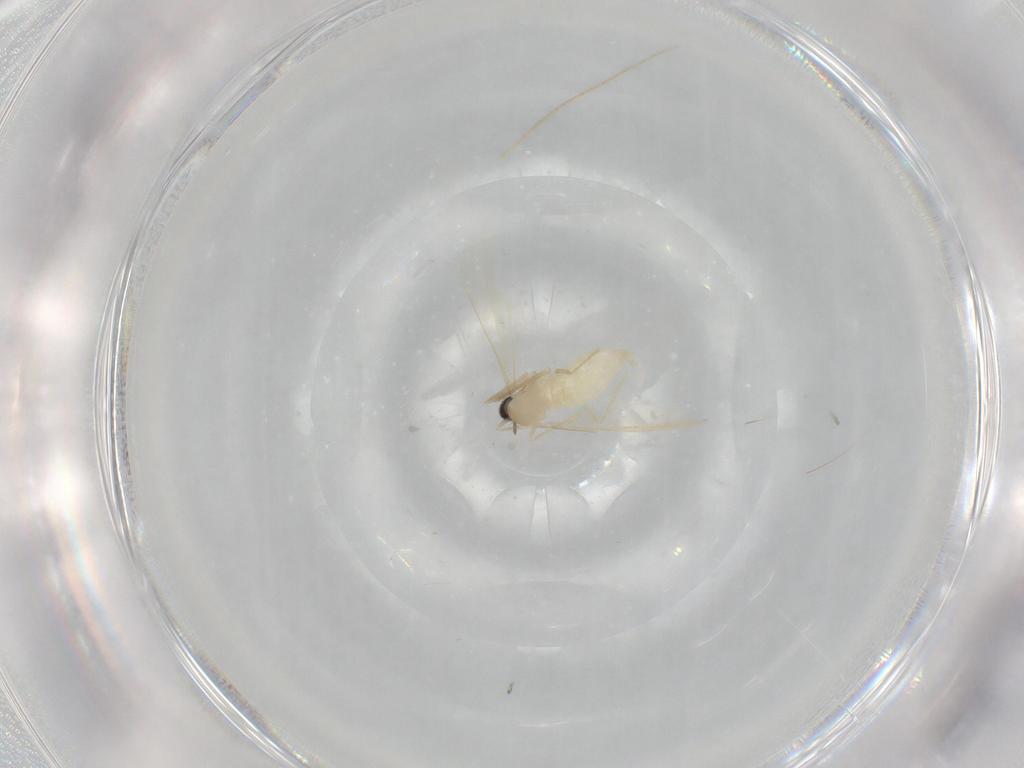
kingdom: Animalia
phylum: Arthropoda
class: Insecta
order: Diptera
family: Cecidomyiidae
